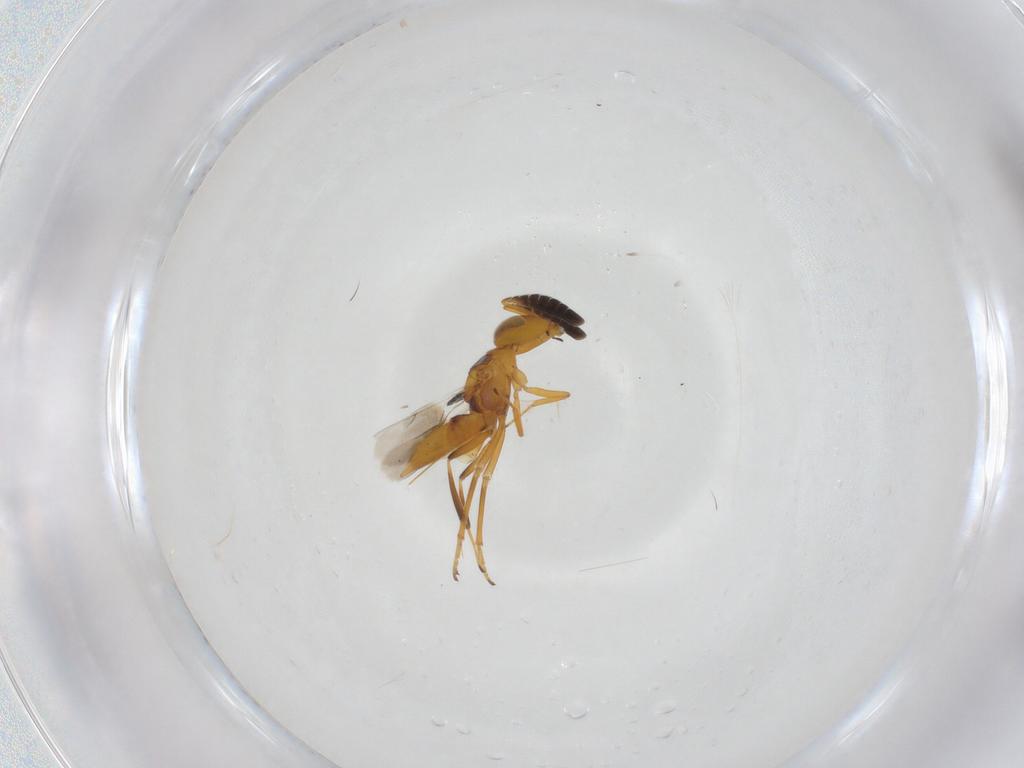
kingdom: Animalia
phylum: Arthropoda
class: Insecta
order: Hymenoptera
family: Encyrtidae
